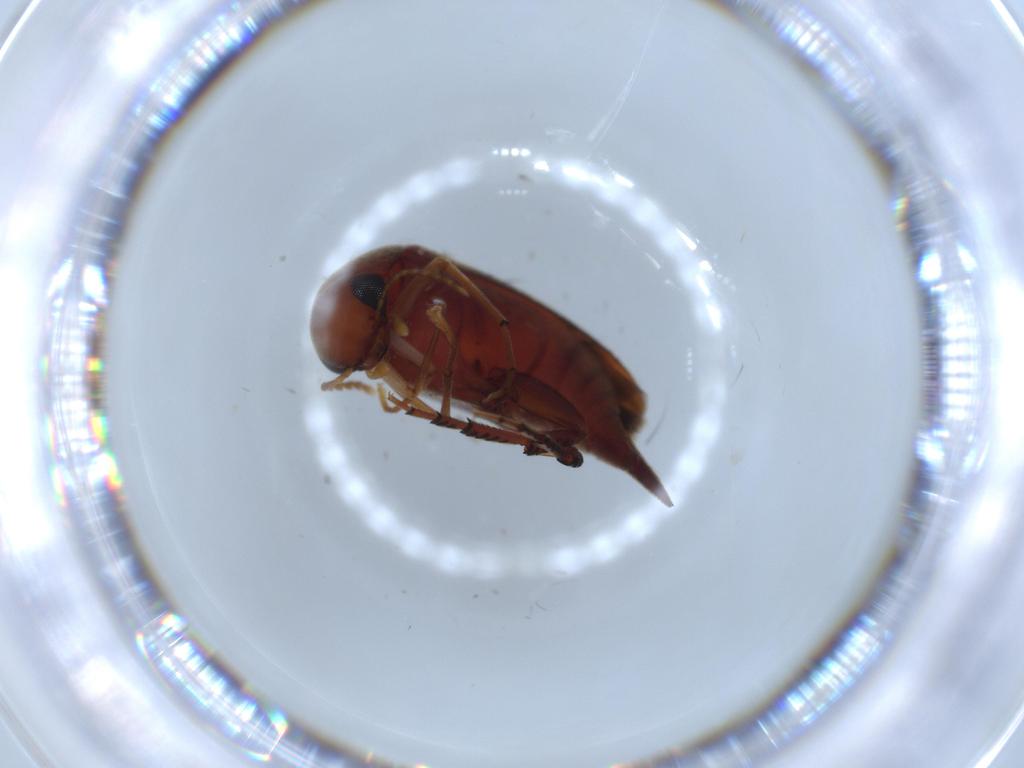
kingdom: Animalia
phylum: Arthropoda
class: Insecta
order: Coleoptera
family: Mordellidae
